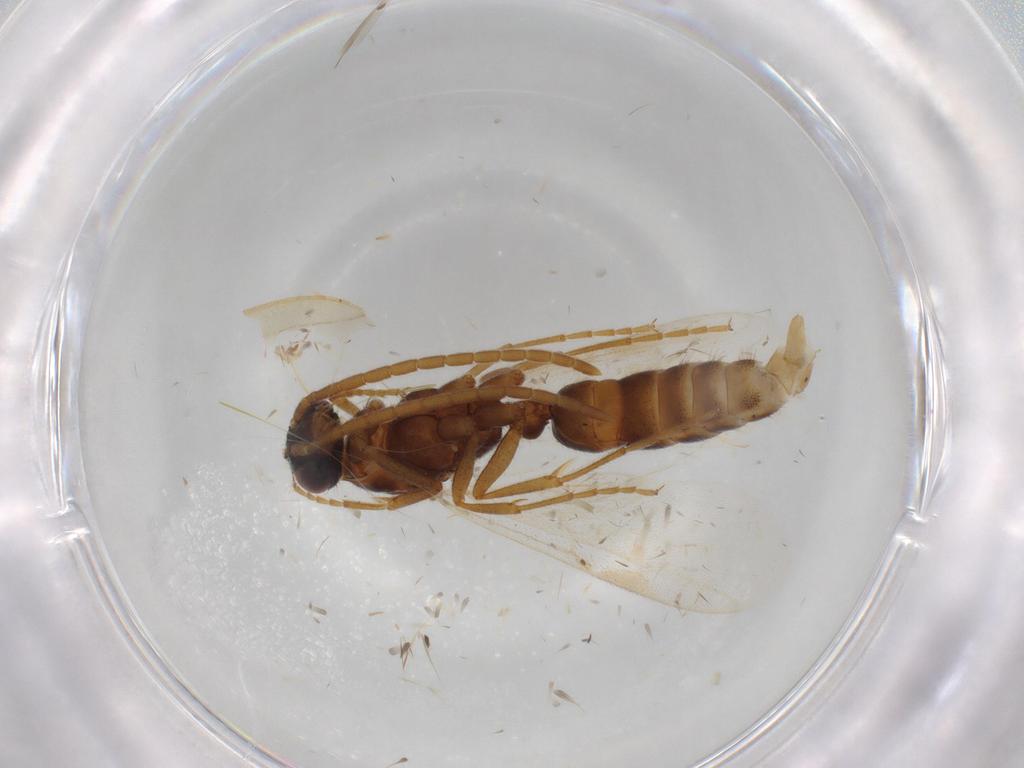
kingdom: Animalia
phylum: Arthropoda
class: Insecta
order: Hymenoptera
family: Formicidae
